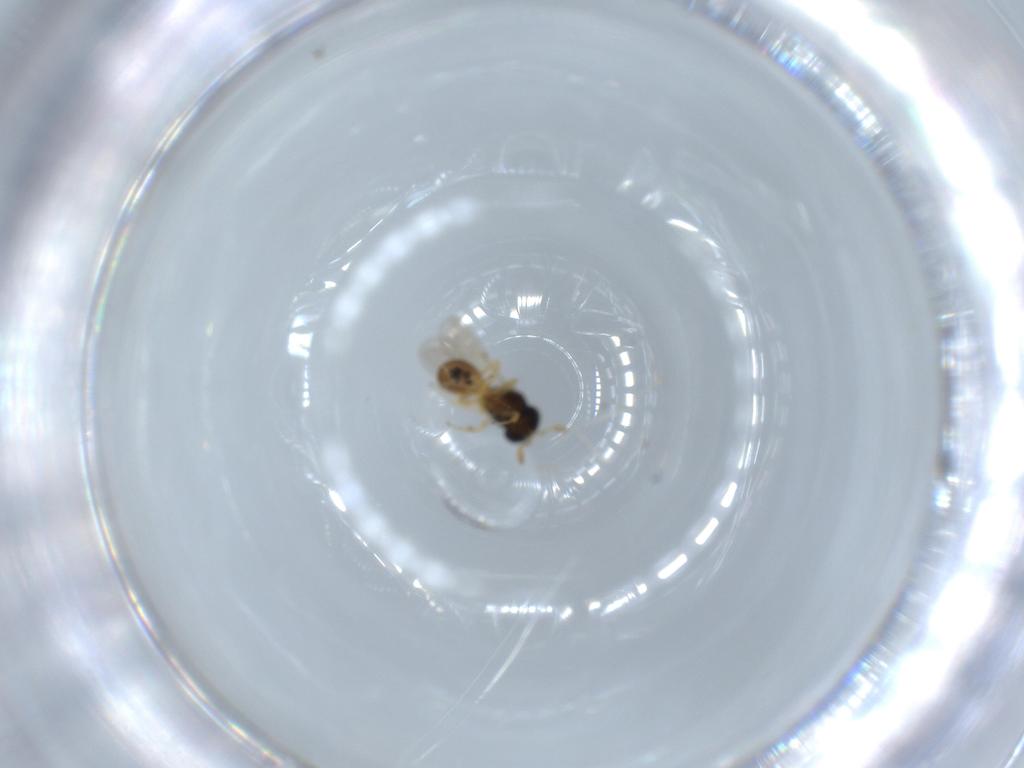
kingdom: Animalia
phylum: Arthropoda
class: Insecta
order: Hymenoptera
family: Scelionidae
